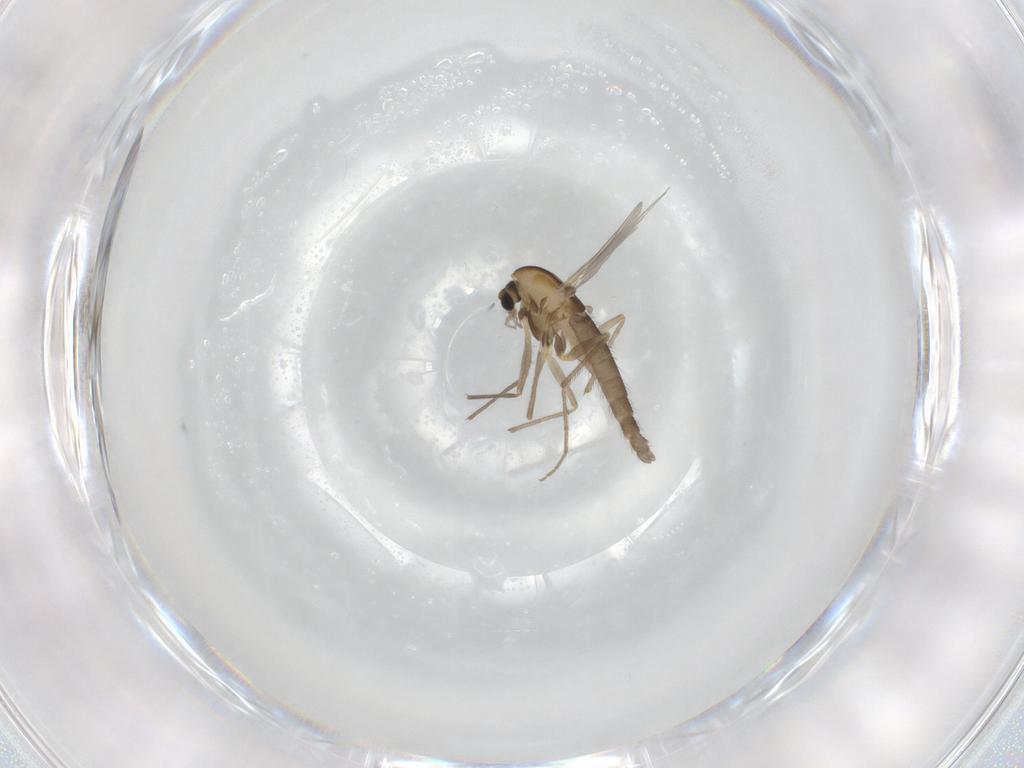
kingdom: Animalia
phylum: Arthropoda
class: Insecta
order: Diptera
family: Chironomidae
